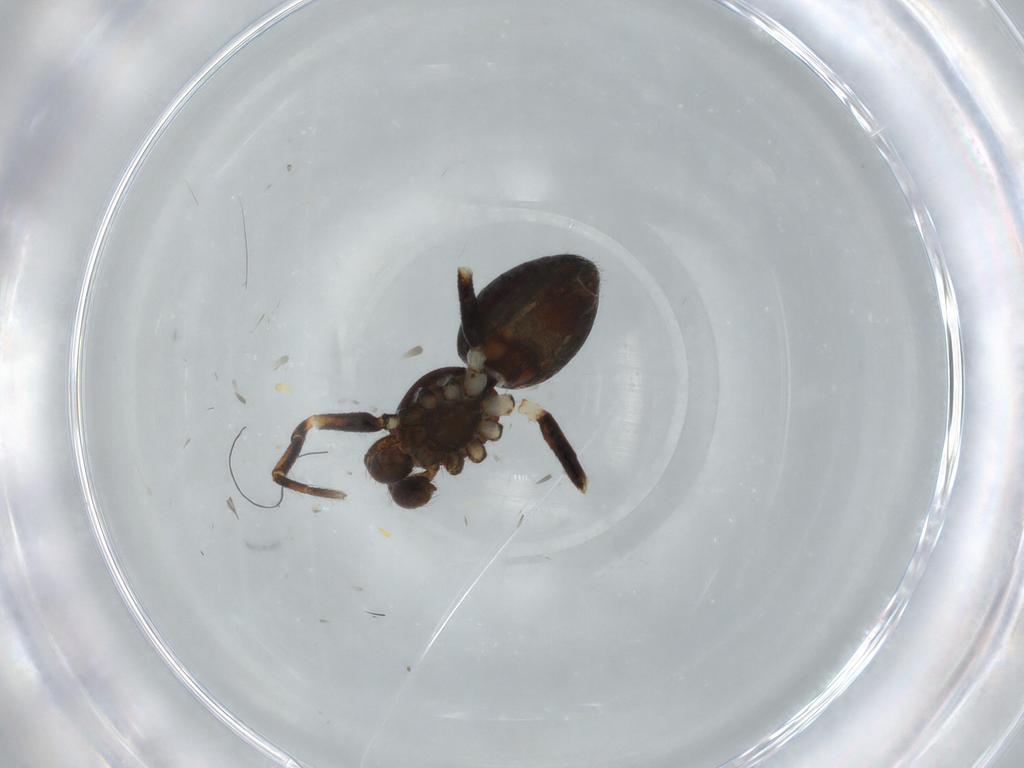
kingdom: Animalia
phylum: Arthropoda
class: Arachnida
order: Araneae
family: Theridiidae
